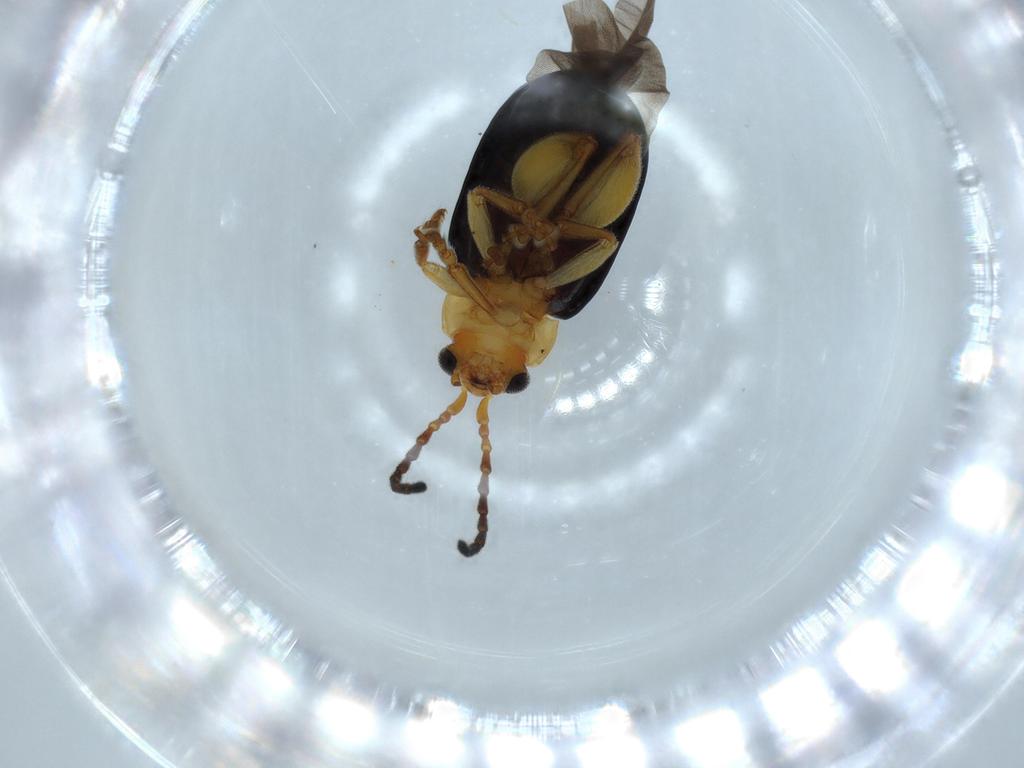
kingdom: Animalia
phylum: Arthropoda
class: Insecta
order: Coleoptera
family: Chrysomelidae
